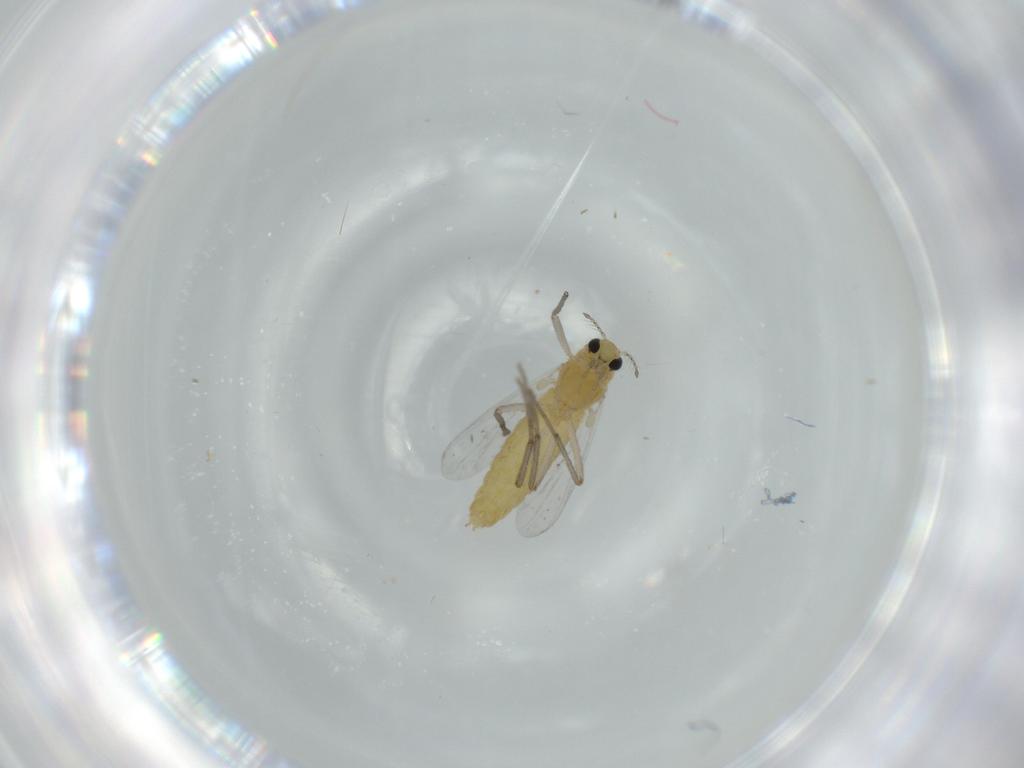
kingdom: Animalia
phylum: Arthropoda
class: Insecta
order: Diptera
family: Chironomidae
